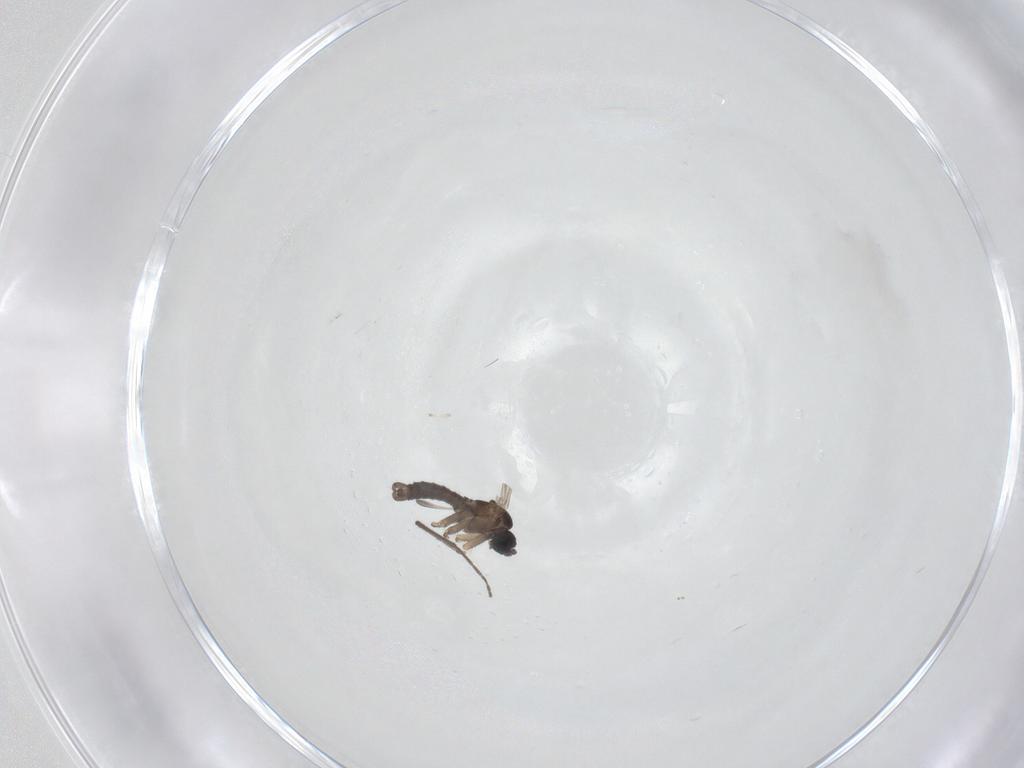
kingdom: Animalia
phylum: Arthropoda
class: Insecta
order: Diptera
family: Sciaridae
